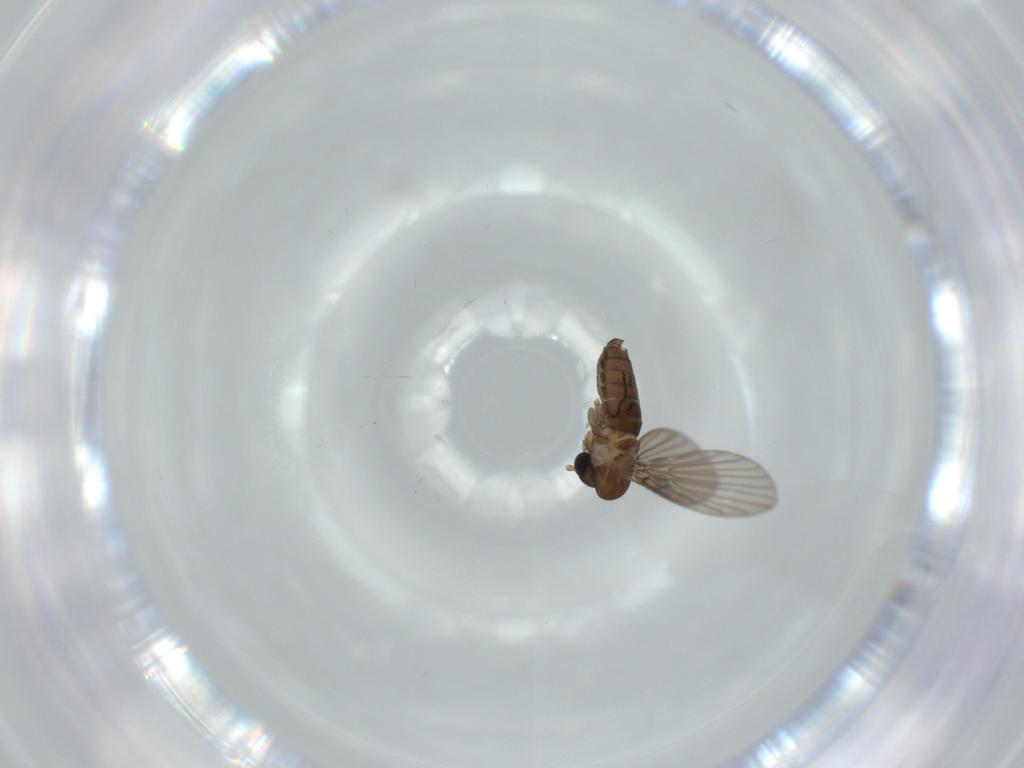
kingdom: Animalia
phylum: Arthropoda
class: Insecta
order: Diptera
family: Psychodidae
